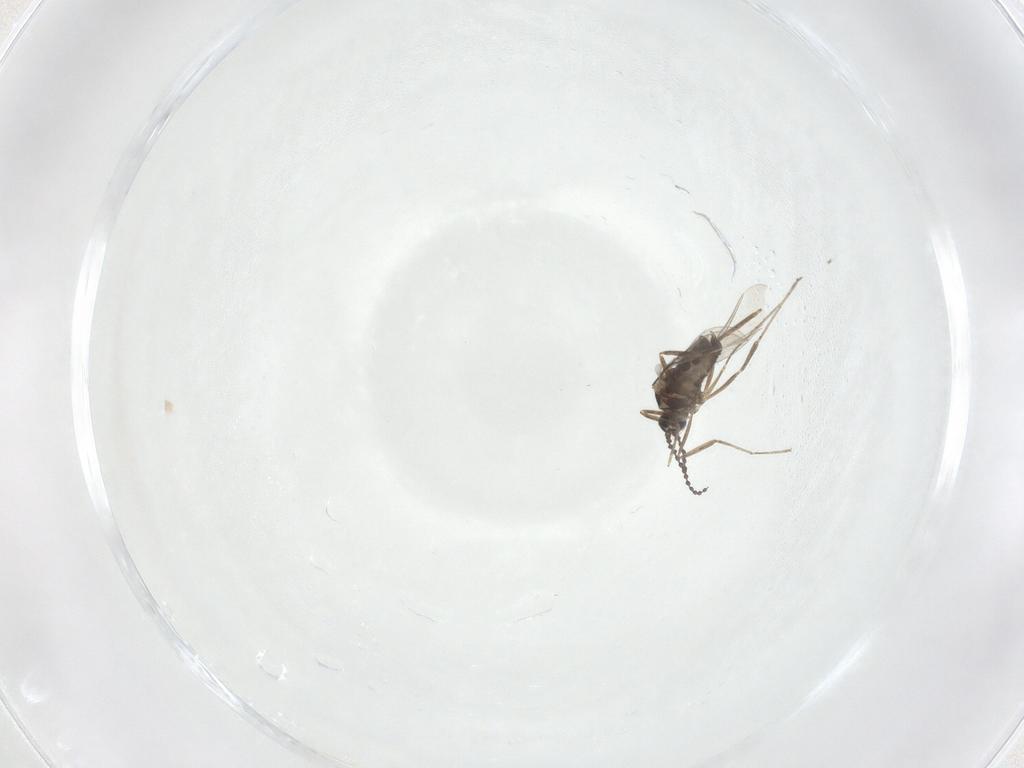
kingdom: Animalia
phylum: Arthropoda
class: Insecta
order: Diptera
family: Cecidomyiidae
